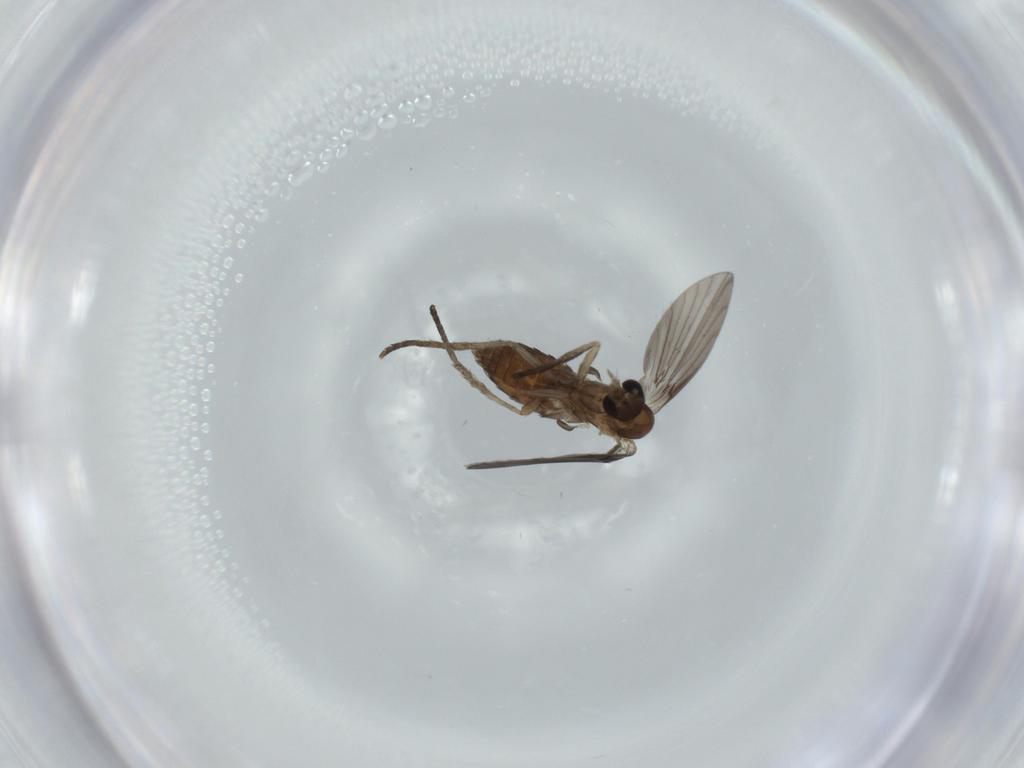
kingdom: Animalia
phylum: Arthropoda
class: Insecta
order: Diptera
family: Psychodidae
